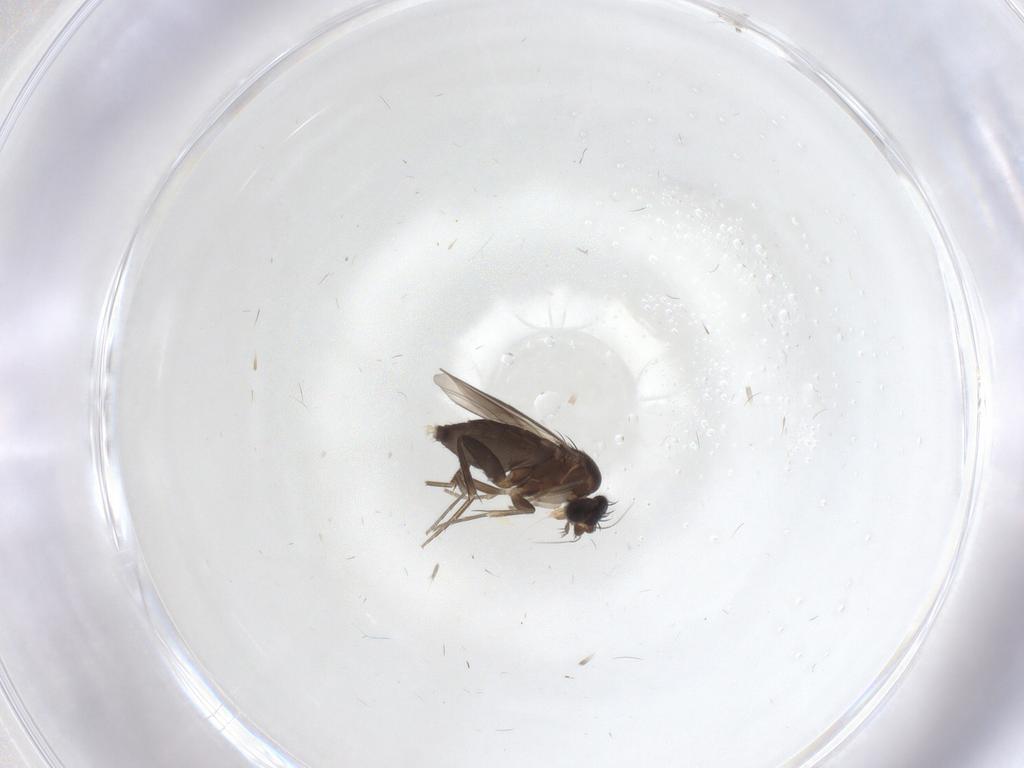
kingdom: Animalia
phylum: Arthropoda
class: Insecta
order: Diptera
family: Phoridae
